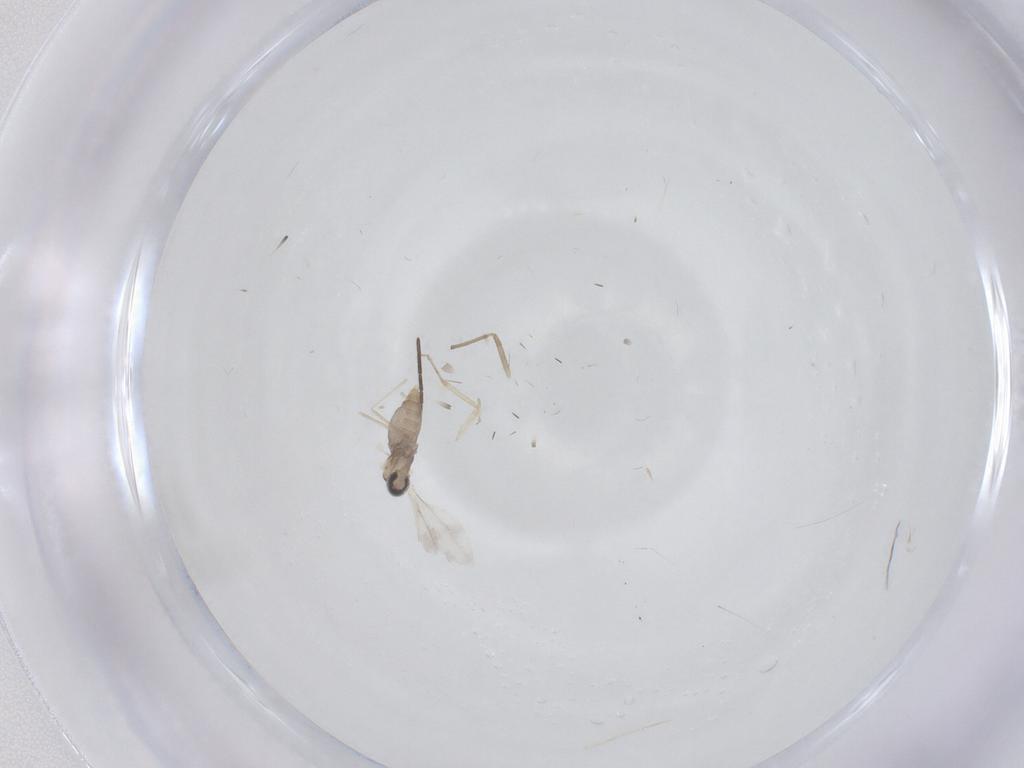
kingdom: Animalia
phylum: Arthropoda
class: Insecta
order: Diptera
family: Cecidomyiidae
